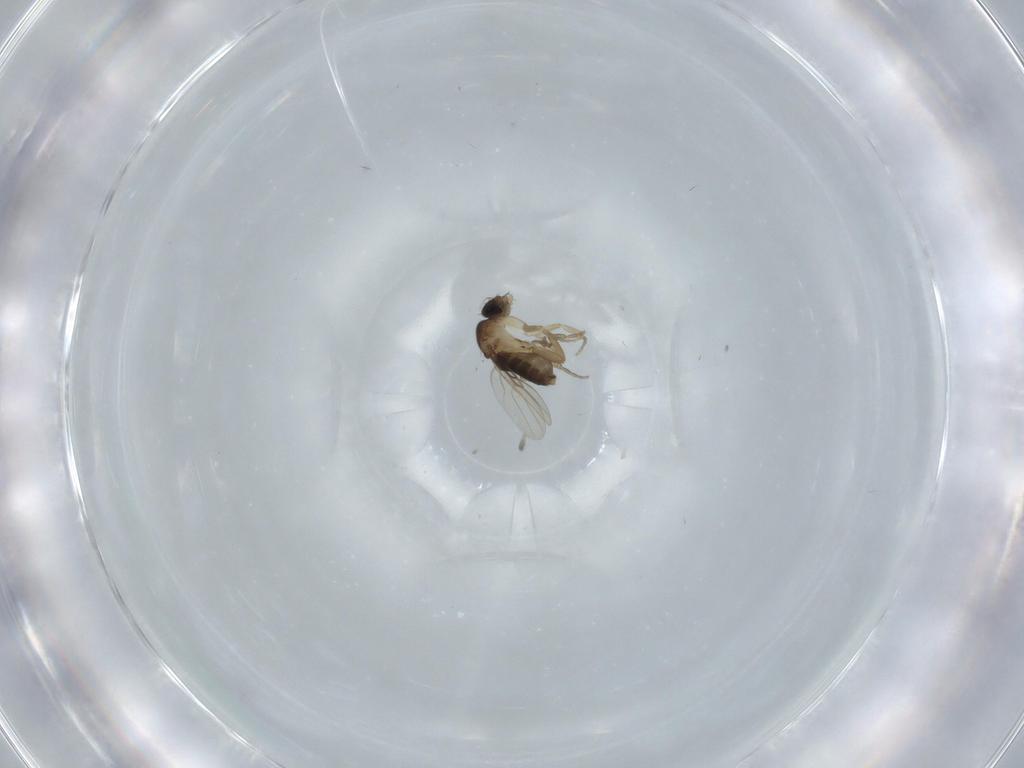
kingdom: Animalia
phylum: Arthropoda
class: Insecta
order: Diptera
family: Phoridae
